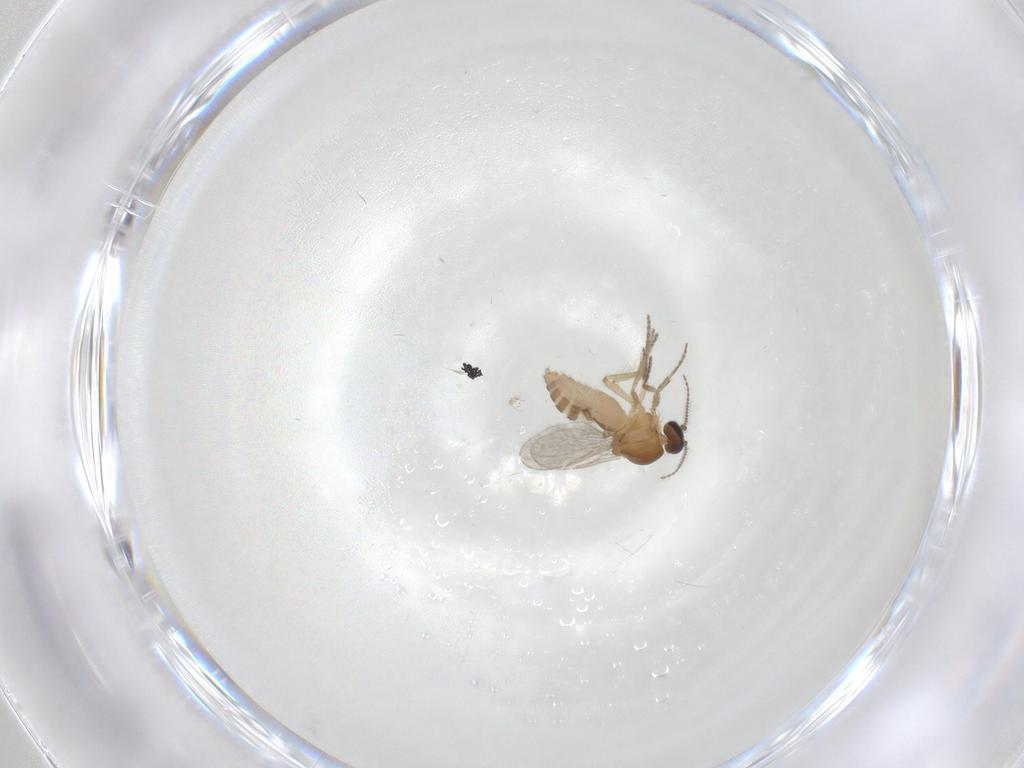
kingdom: Animalia
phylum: Arthropoda
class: Insecta
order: Diptera
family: Ceratopogonidae
